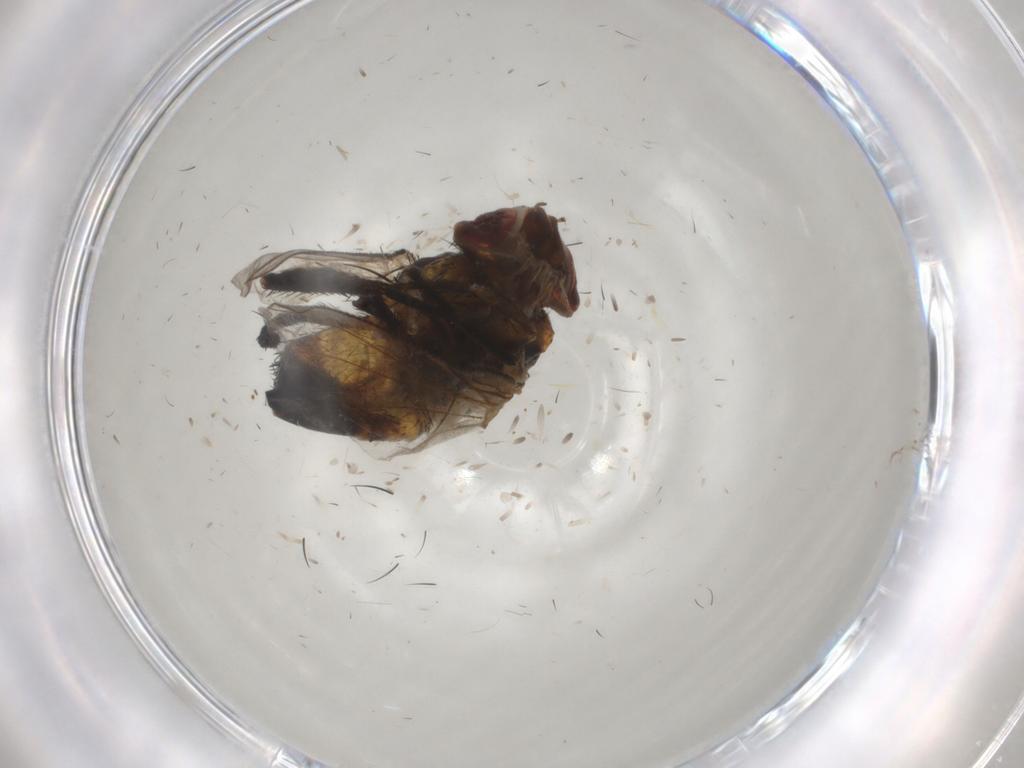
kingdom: Animalia
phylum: Arthropoda
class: Insecta
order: Diptera
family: Glossinidae
